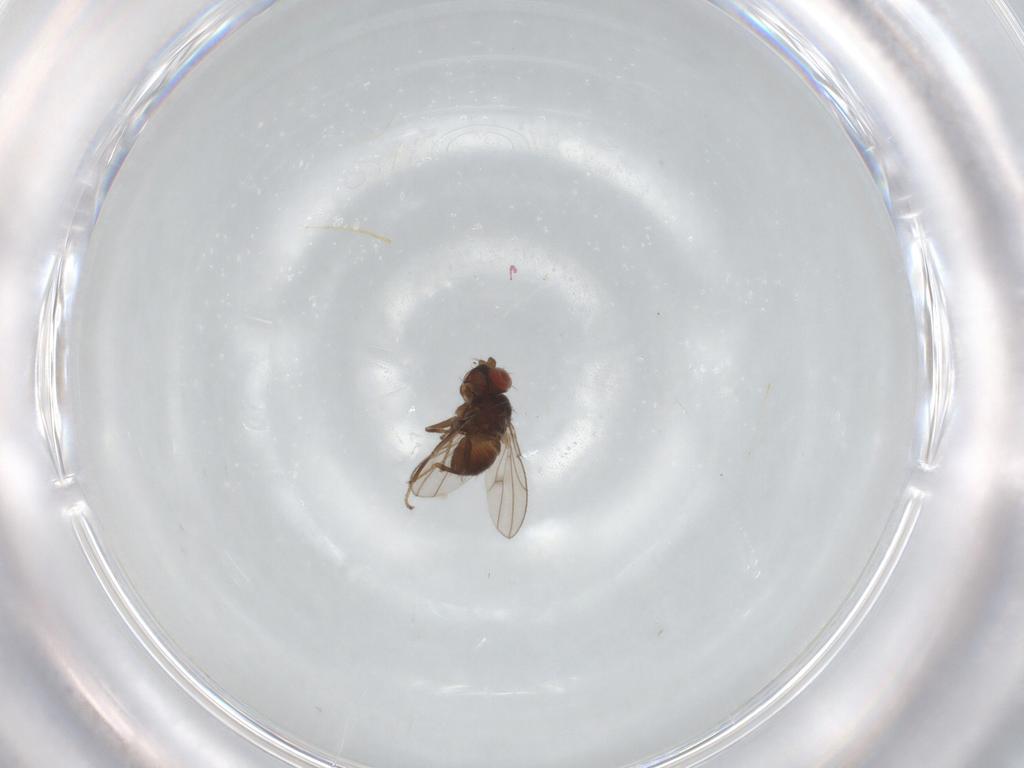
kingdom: Animalia
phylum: Arthropoda
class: Insecta
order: Diptera
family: Ephydridae
